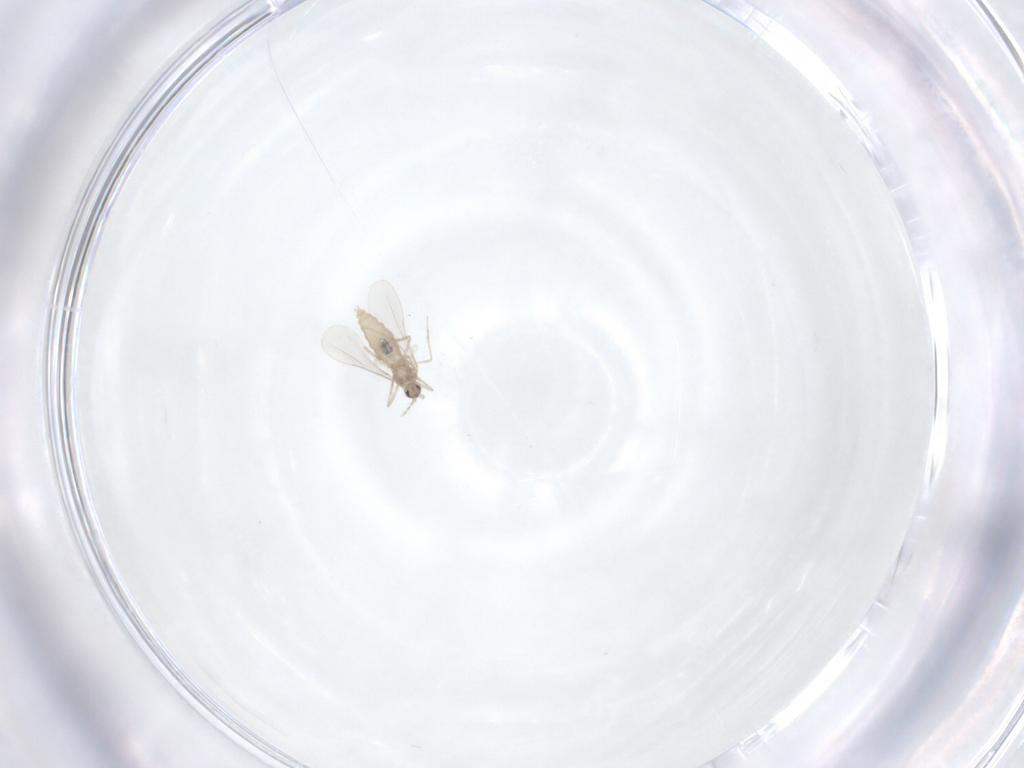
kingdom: Animalia
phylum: Arthropoda
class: Insecta
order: Diptera
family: Cecidomyiidae
